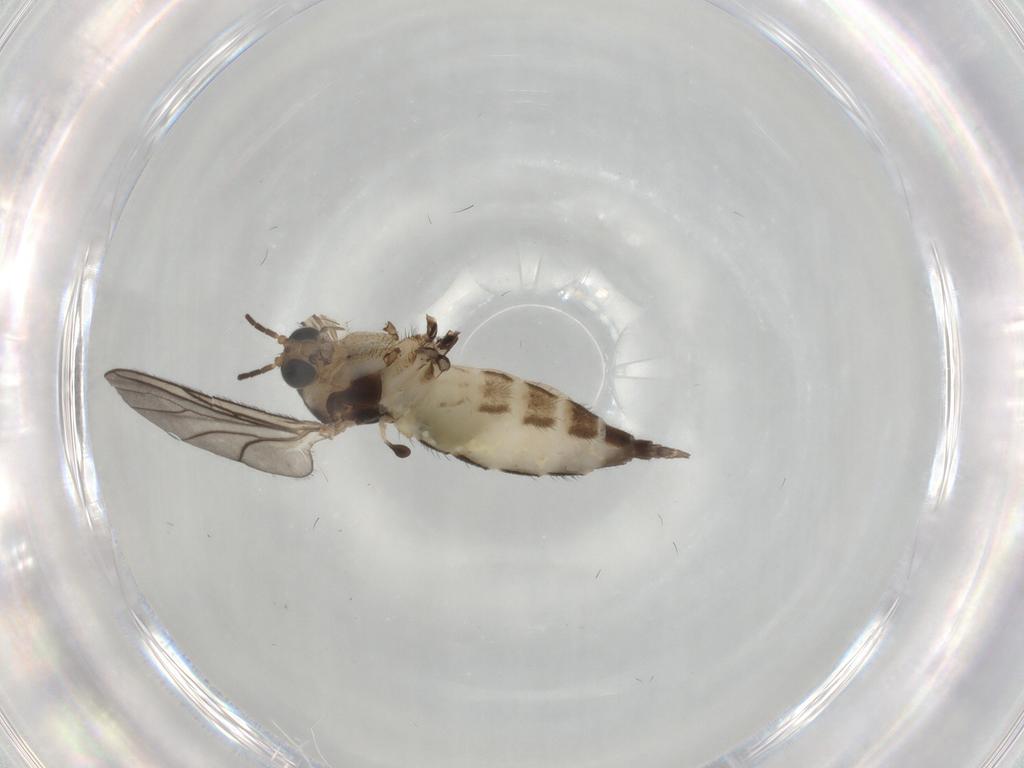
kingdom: Animalia
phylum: Arthropoda
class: Insecta
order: Diptera
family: Sciaridae
